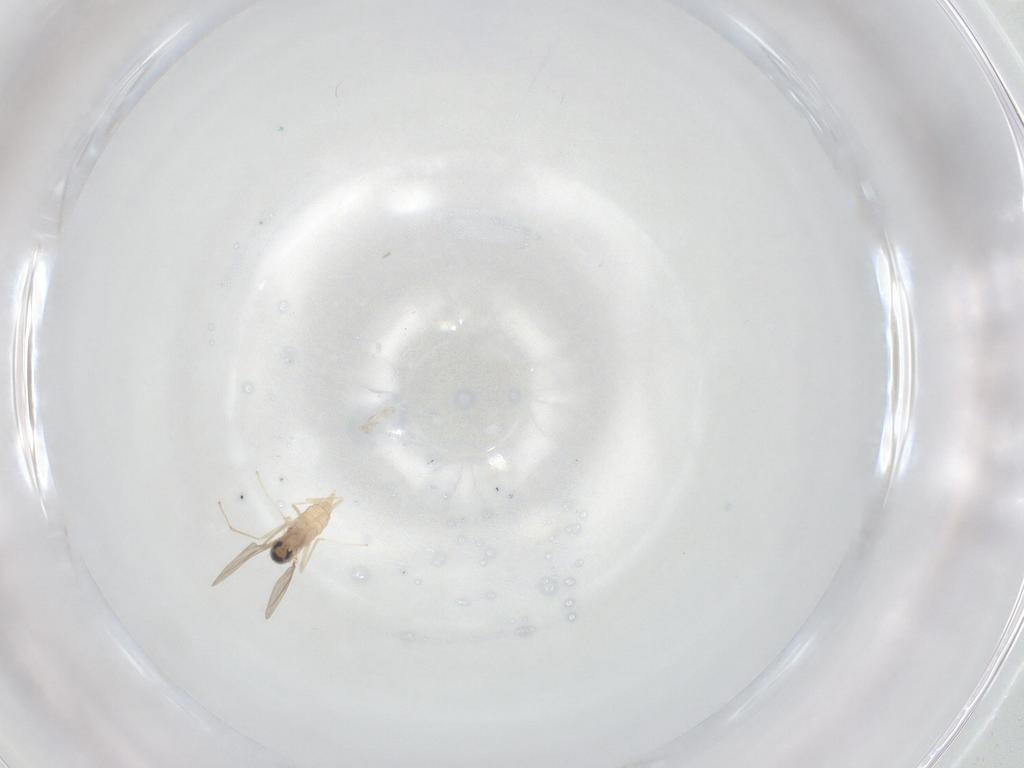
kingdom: Animalia
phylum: Arthropoda
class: Insecta
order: Diptera
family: Cecidomyiidae
